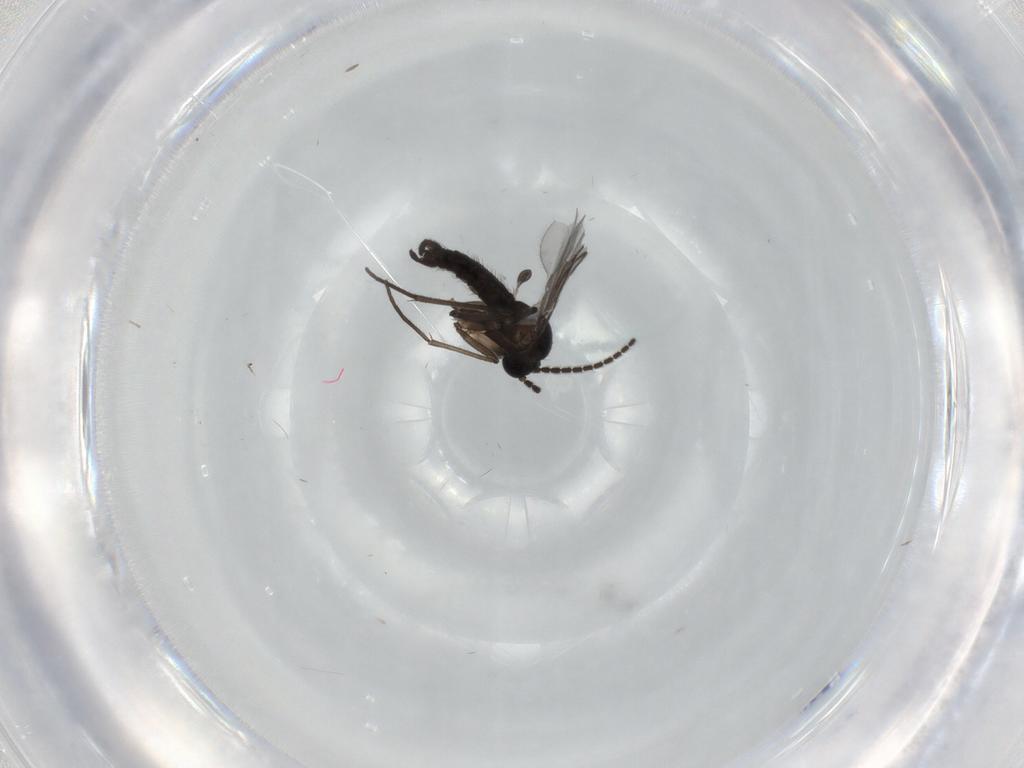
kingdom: Animalia
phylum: Arthropoda
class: Insecta
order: Diptera
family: Sciaridae
